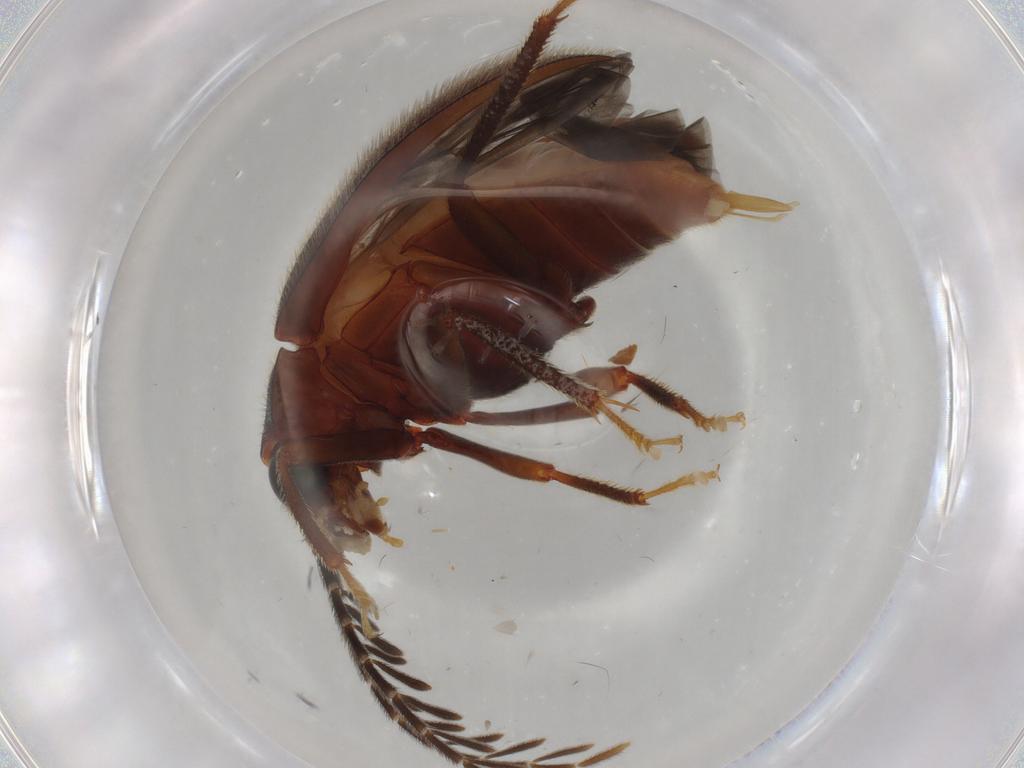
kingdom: Animalia
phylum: Arthropoda
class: Insecta
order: Coleoptera
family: Ptilodactylidae
